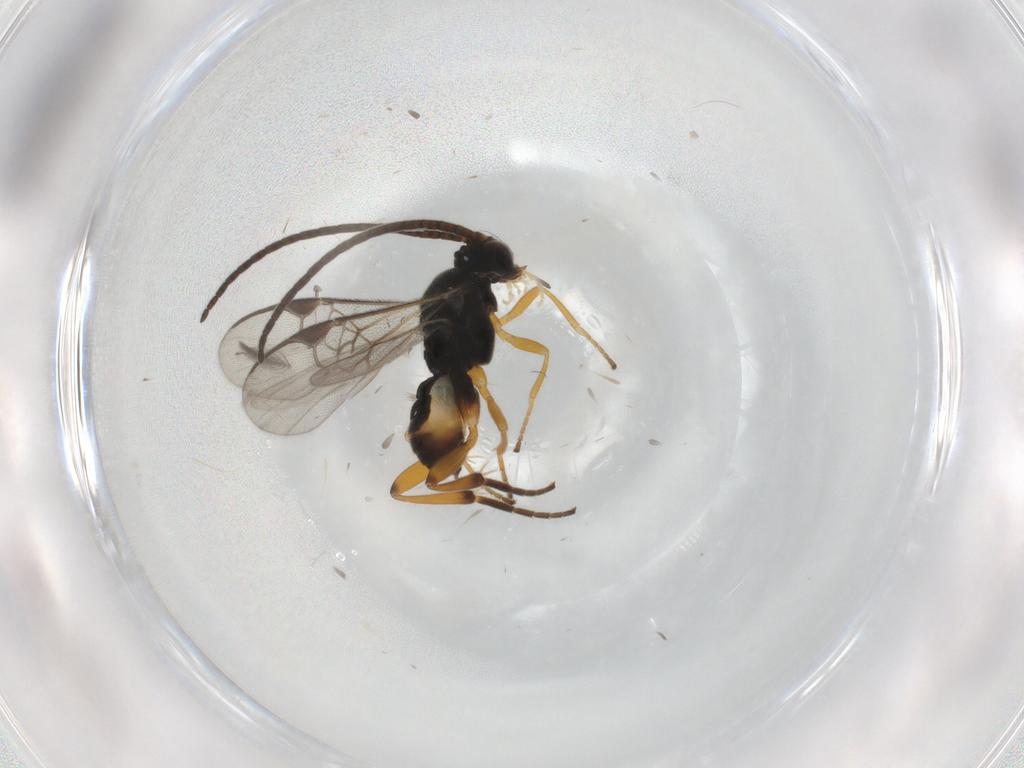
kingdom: Animalia
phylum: Arthropoda
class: Insecta
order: Hymenoptera
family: Braconidae
